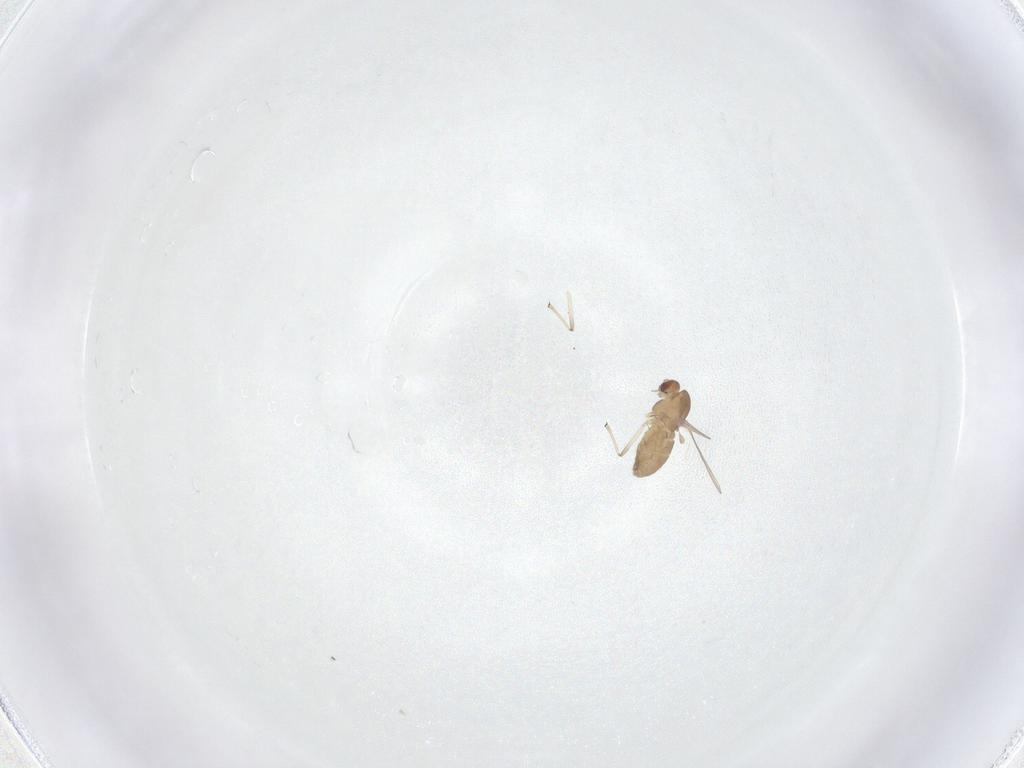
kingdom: Animalia
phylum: Arthropoda
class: Insecta
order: Diptera
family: Chironomidae
